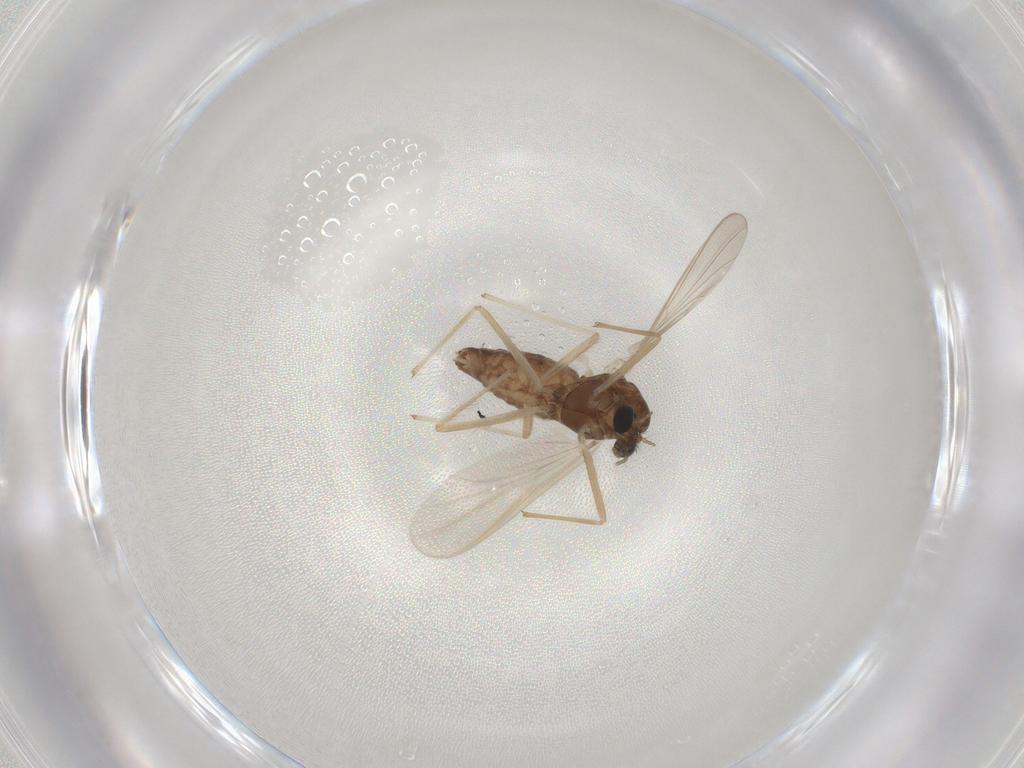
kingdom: Animalia
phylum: Arthropoda
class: Insecta
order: Diptera
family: Chironomidae
